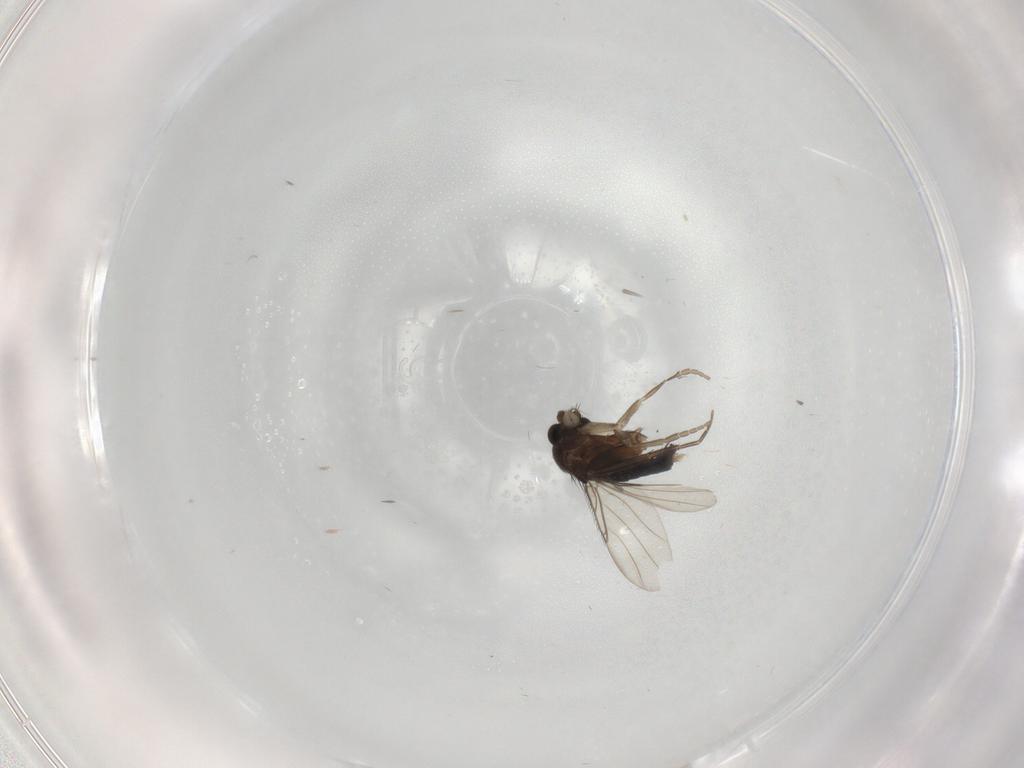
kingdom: Animalia
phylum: Arthropoda
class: Insecta
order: Diptera
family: Phoridae
